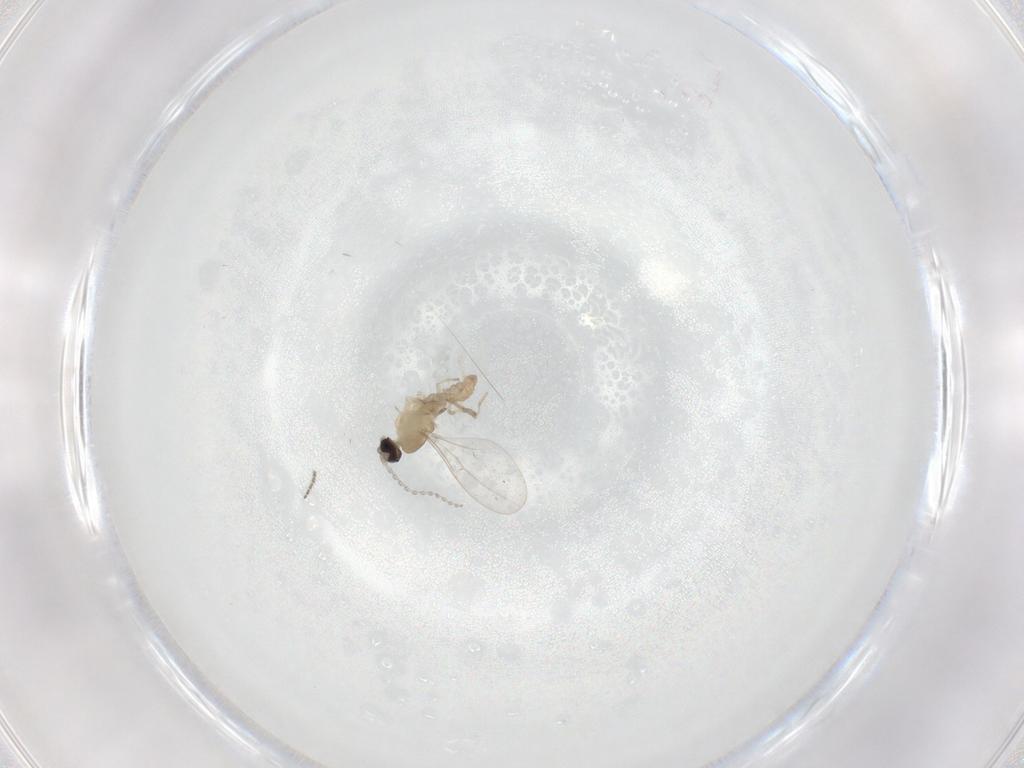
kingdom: Animalia
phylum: Arthropoda
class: Insecta
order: Diptera
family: Cecidomyiidae
